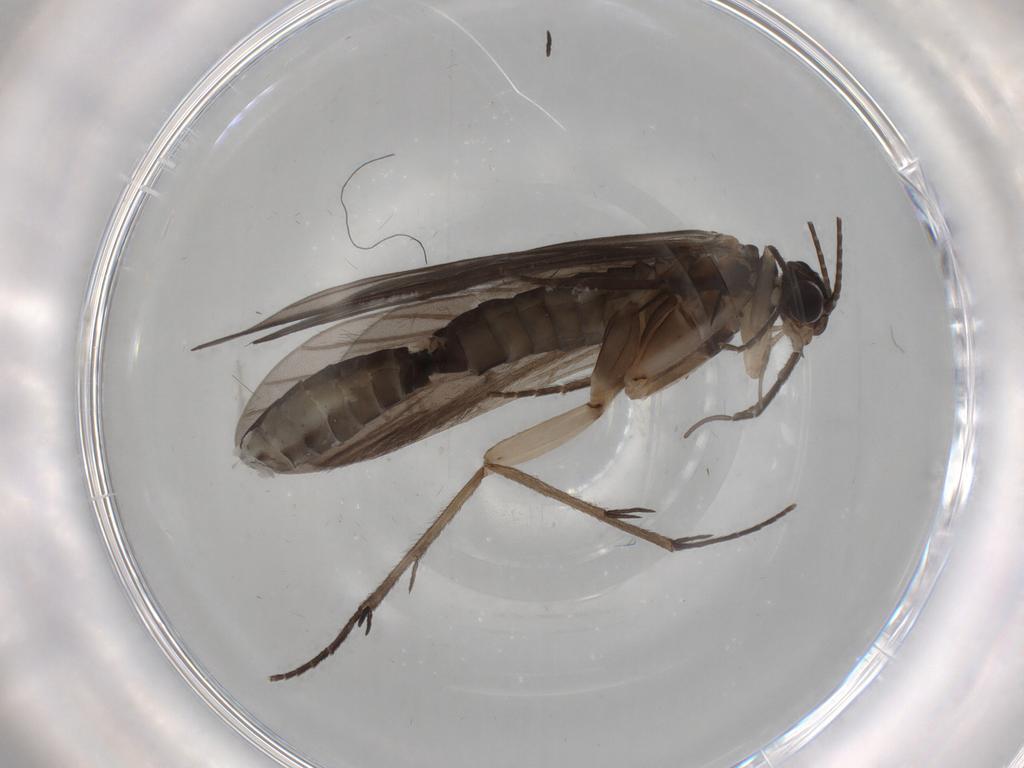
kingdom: Animalia
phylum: Arthropoda
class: Insecta
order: Trichoptera
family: Philopotamidae
